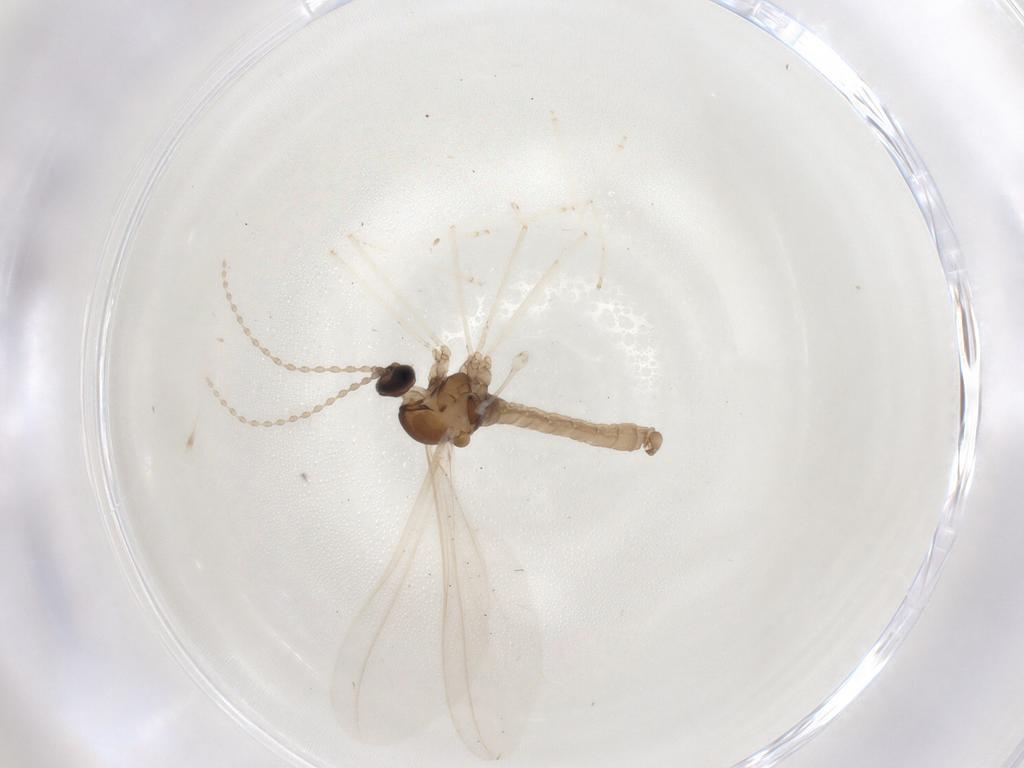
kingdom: Animalia
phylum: Arthropoda
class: Insecta
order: Diptera
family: Cecidomyiidae
